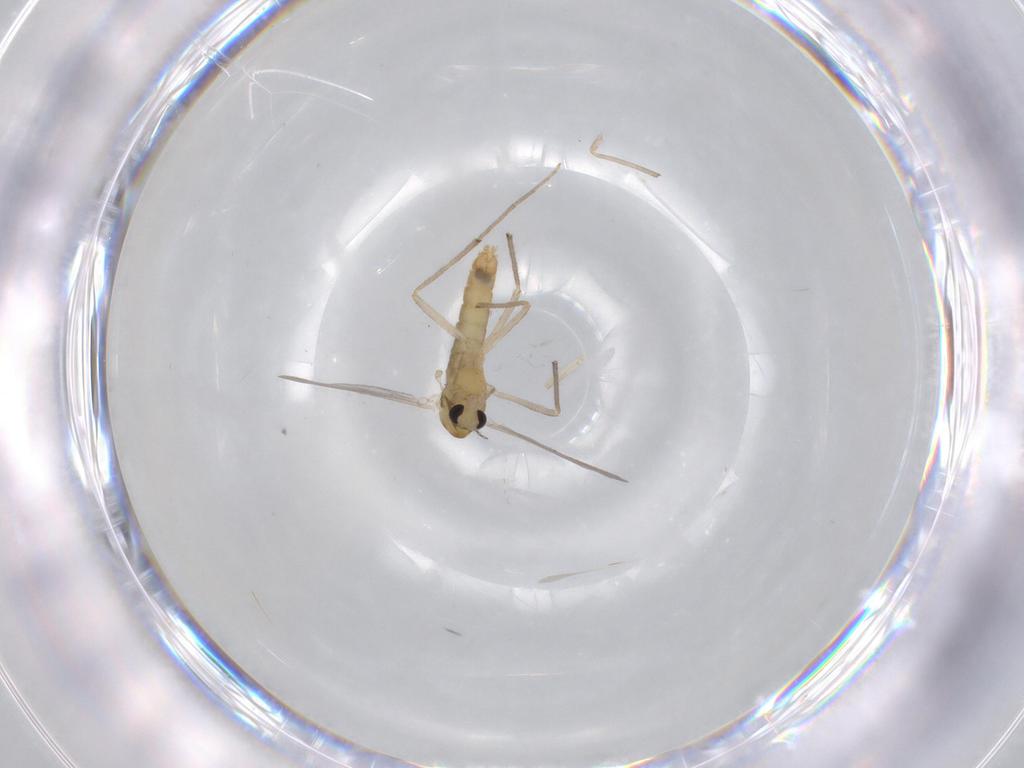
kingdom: Animalia
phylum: Arthropoda
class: Insecta
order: Diptera
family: Chironomidae
